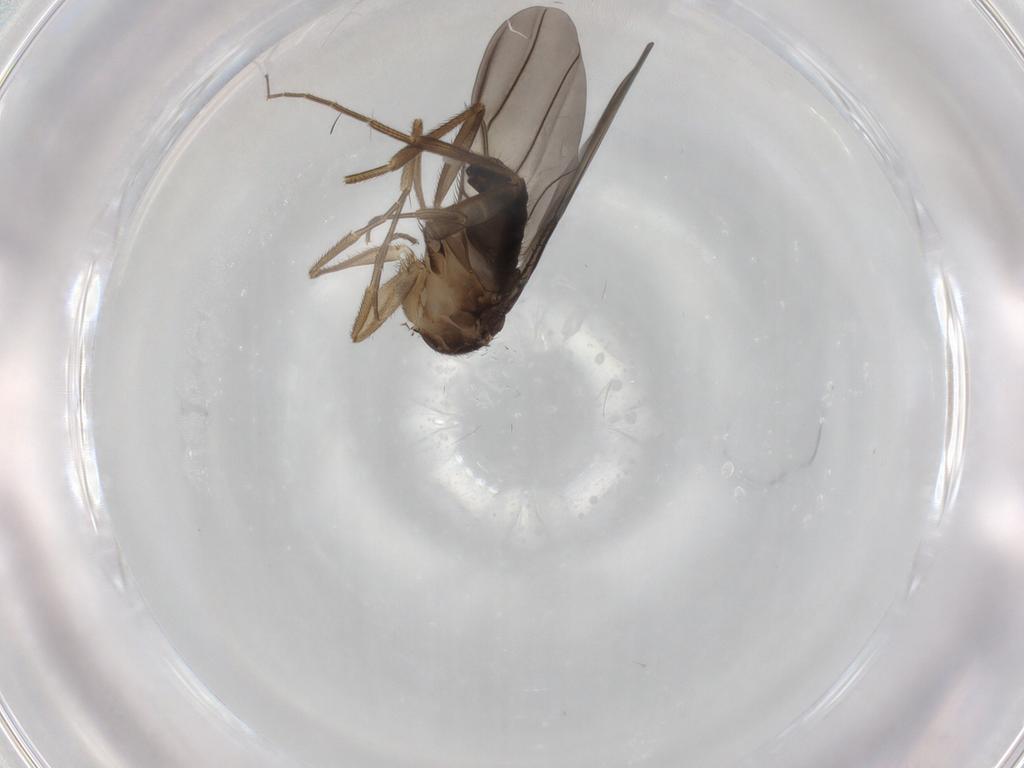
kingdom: Animalia
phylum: Arthropoda
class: Insecta
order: Diptera
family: Phoridae
